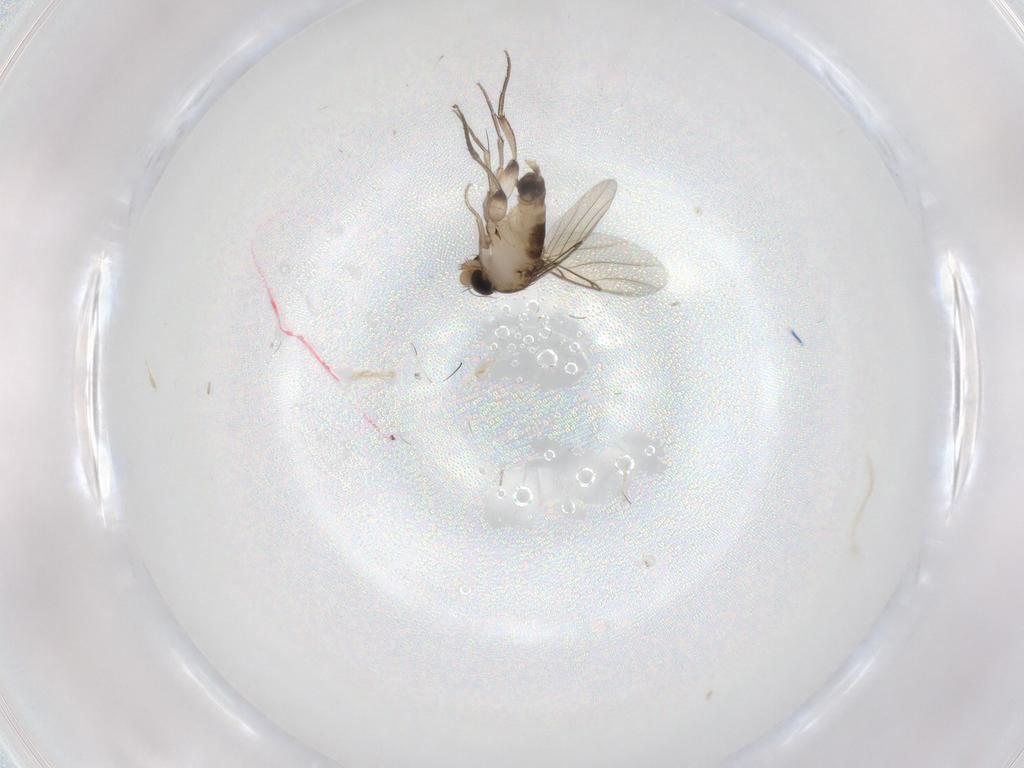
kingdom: Animalia
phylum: Arthropoda
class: Insecta
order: Diptera
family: Phoridae
